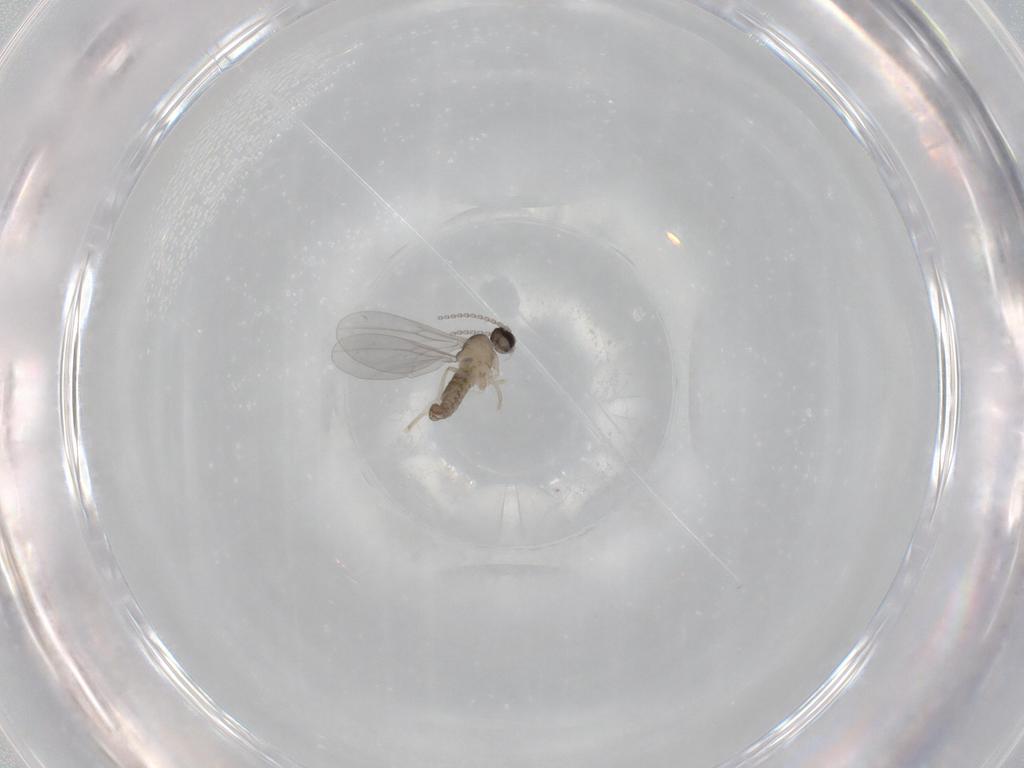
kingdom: Animalia
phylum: Arthropoda
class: Insecta
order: Diptera
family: Cecidomyiidae
